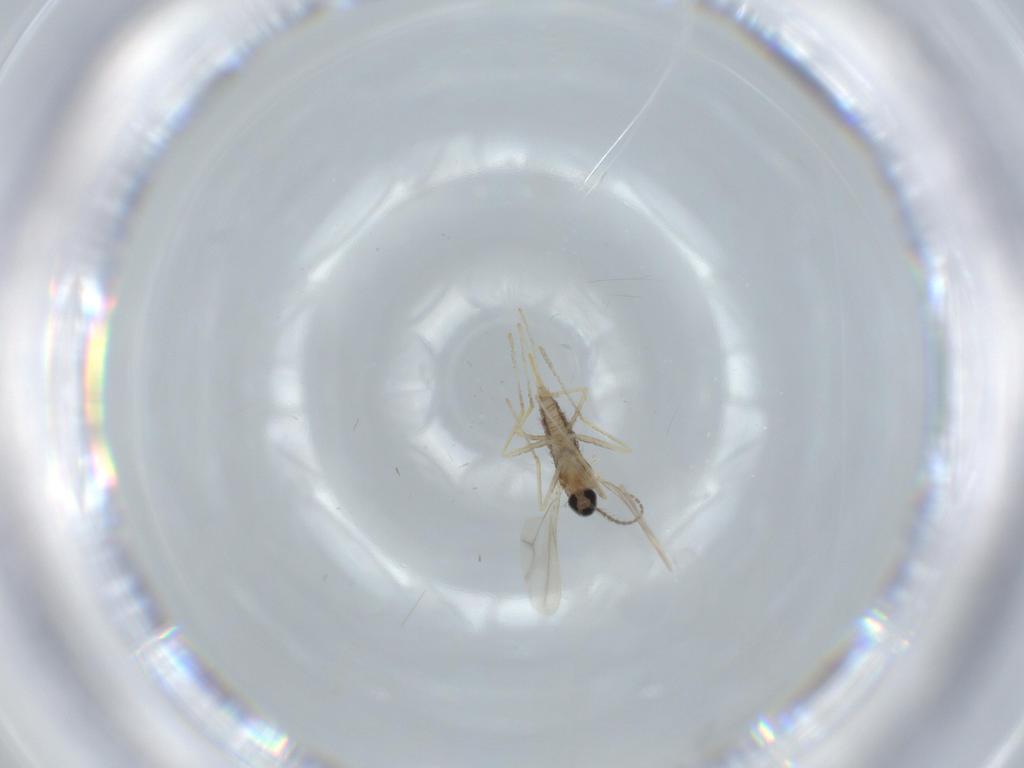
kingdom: Animalia
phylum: Arthropoda
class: Insecta
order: Diptera
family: Cecidomyiidae
